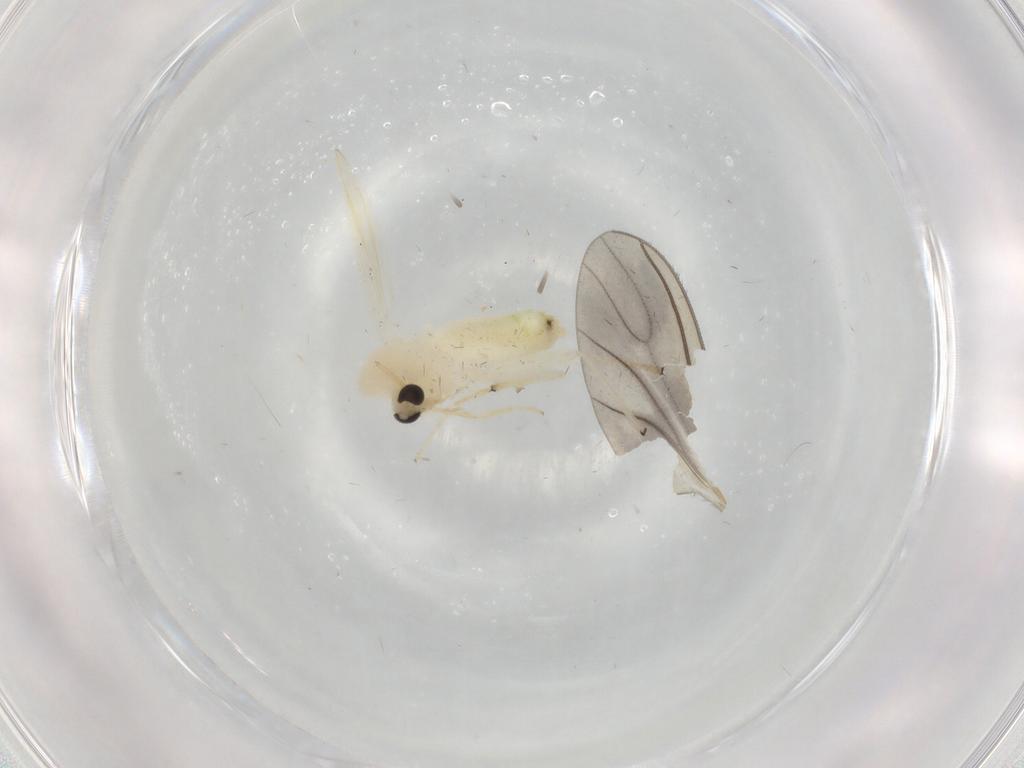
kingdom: Animalia
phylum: Arthropoda
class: Insecta
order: Diptera
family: Chironomidae
